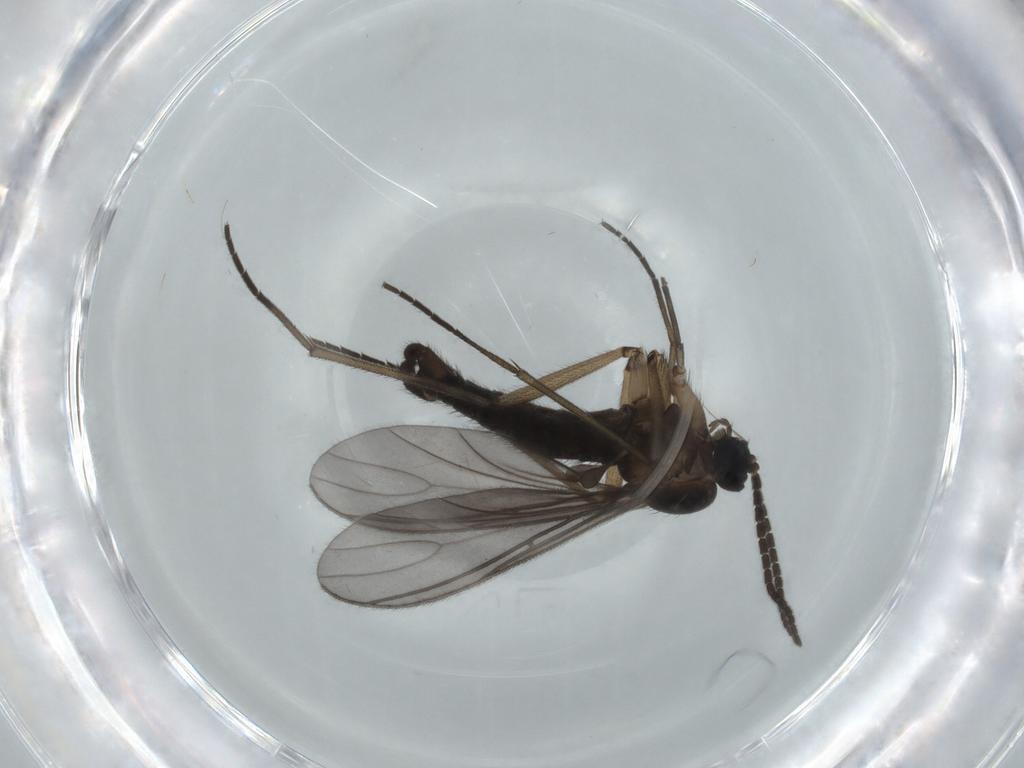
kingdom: Animalia
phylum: Arthropoda
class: Insecta
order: Diptera
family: Sciaridae
